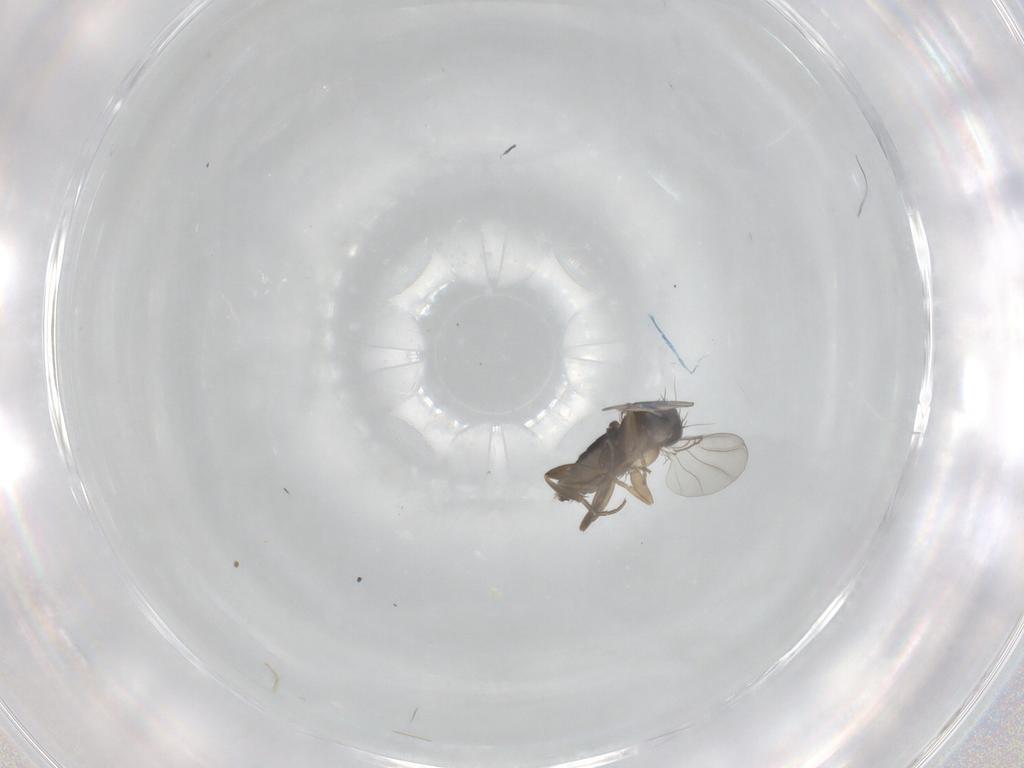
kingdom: Animalia
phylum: Arthropoda
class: Insecta
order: Diptera
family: Phoridae
